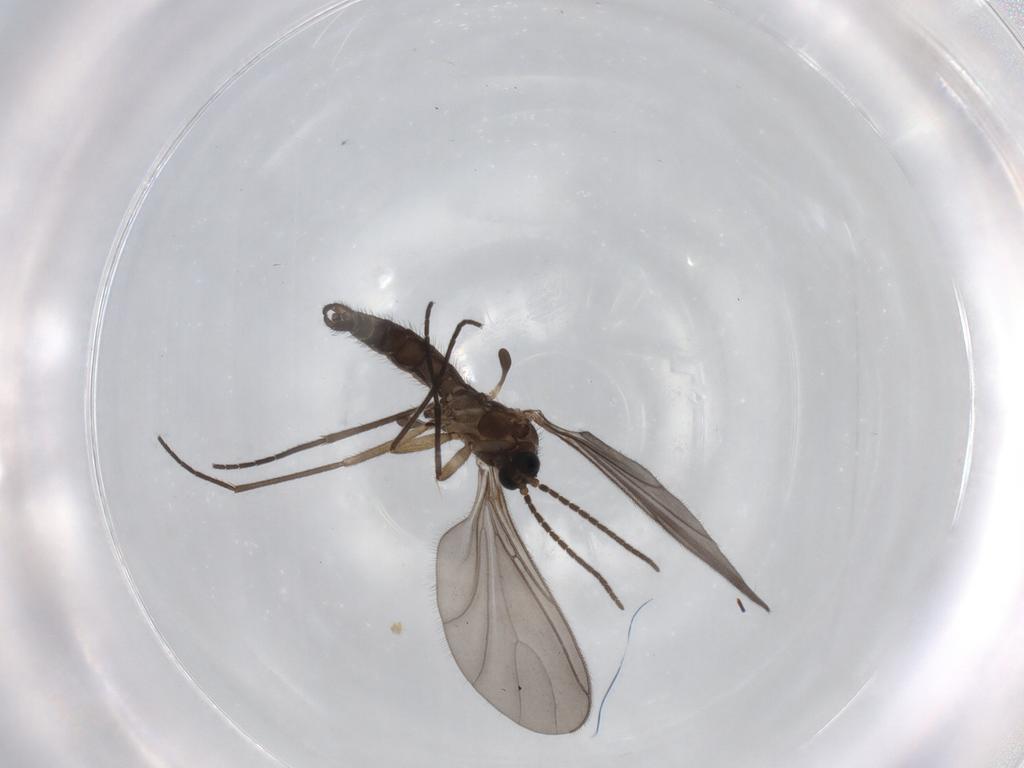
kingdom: Animalia
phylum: Arthropoda
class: Insecta
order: Diptera
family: Sciaridae
